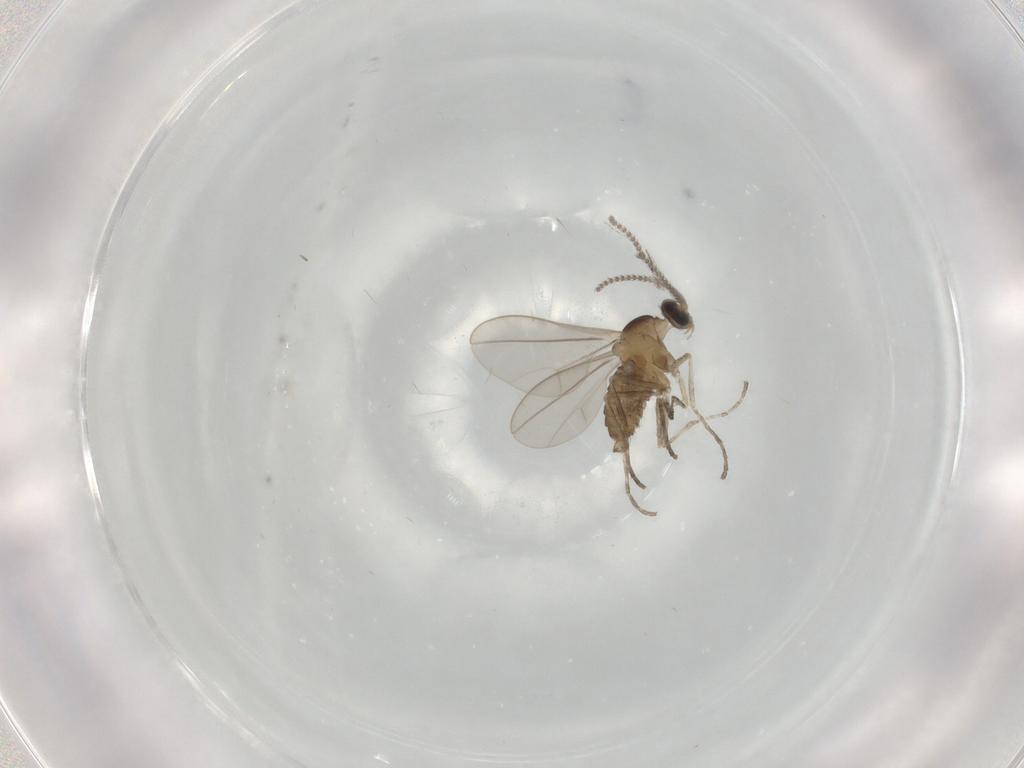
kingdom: Animalia
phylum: Arthropoda
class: Insecta
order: Diptera
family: Cecidomyiidae
